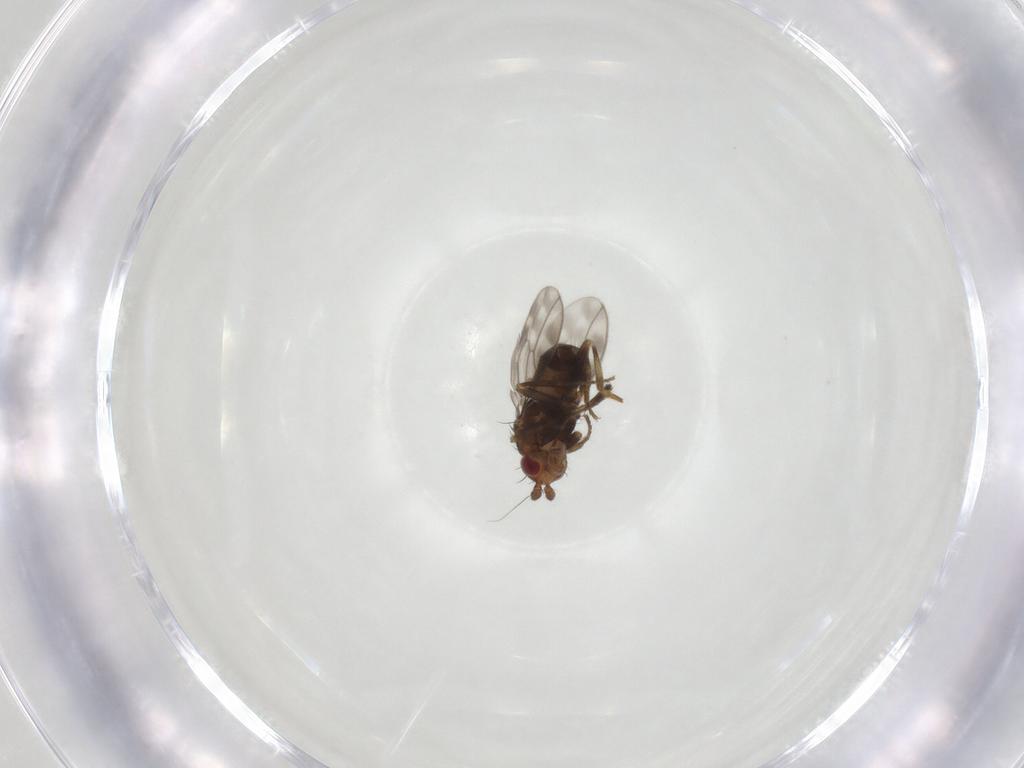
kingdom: Animalia
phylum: Arthropoda
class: Insecta
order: Diptera
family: Sphaeroceridae
